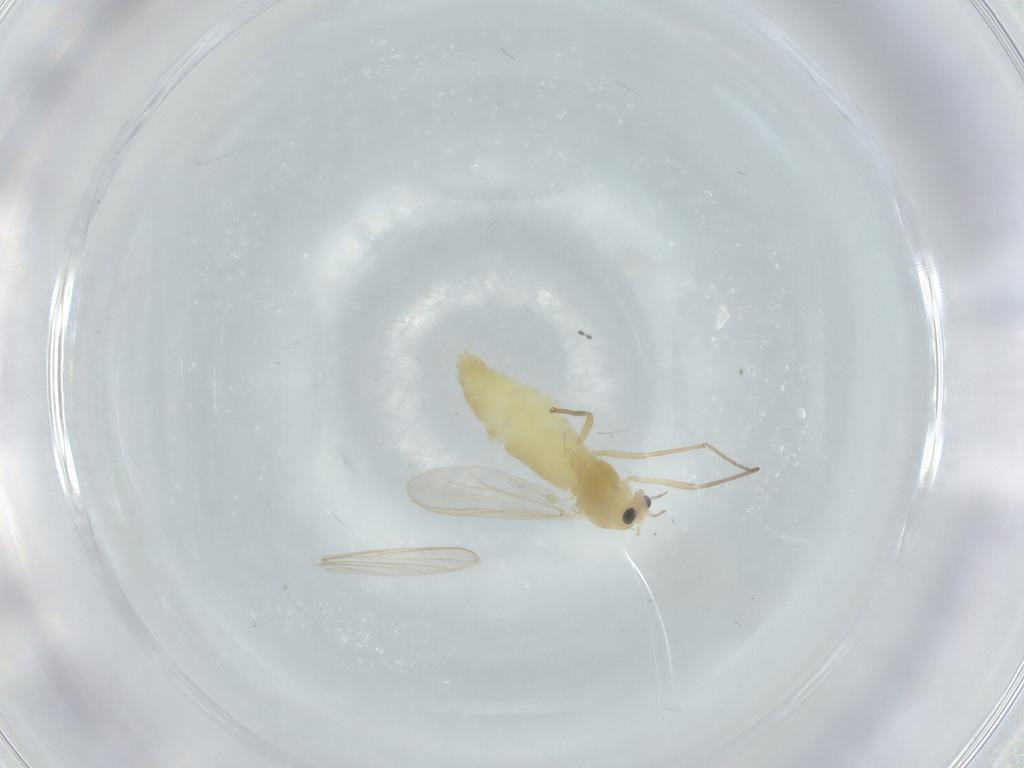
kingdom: Animalia
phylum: Arthropoda
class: Insecta
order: Diptera
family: Chironomidae
